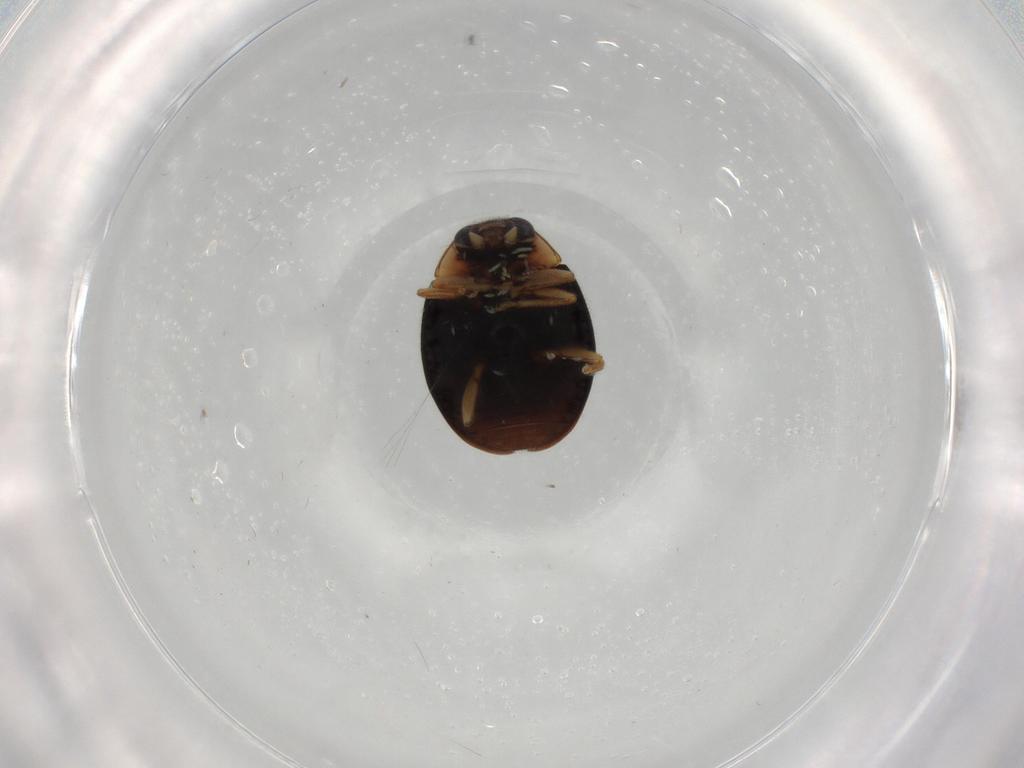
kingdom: Animalia
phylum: Arthropoda
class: Insecta
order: Coleoptera
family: Coccinellidae
